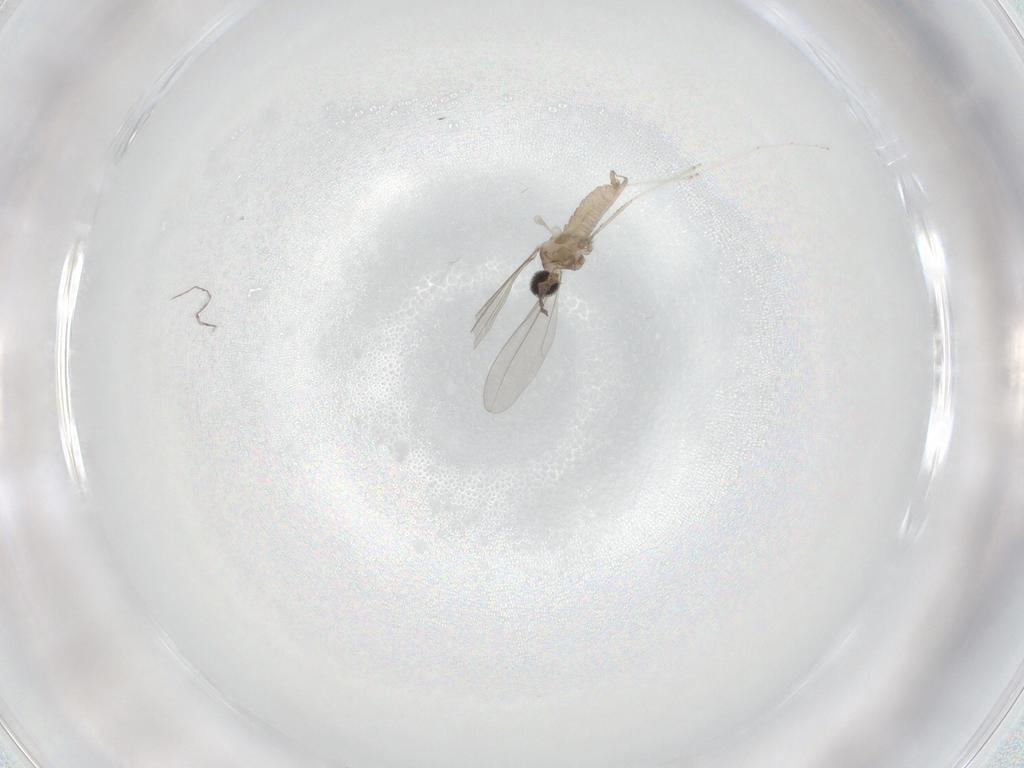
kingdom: Animalia
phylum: Arthropoda
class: Insecta
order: Diptera
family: Cecidomyiidae
